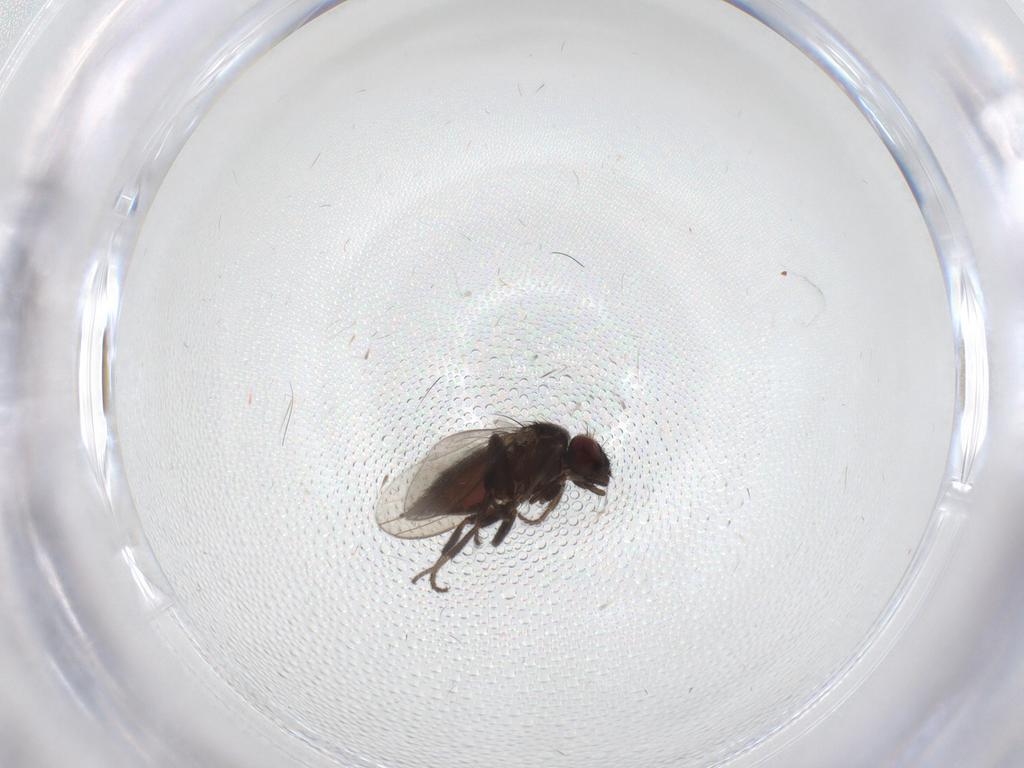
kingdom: Animalia
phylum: Arthropoda
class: Insecta
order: Diptera
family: Milichiidae
